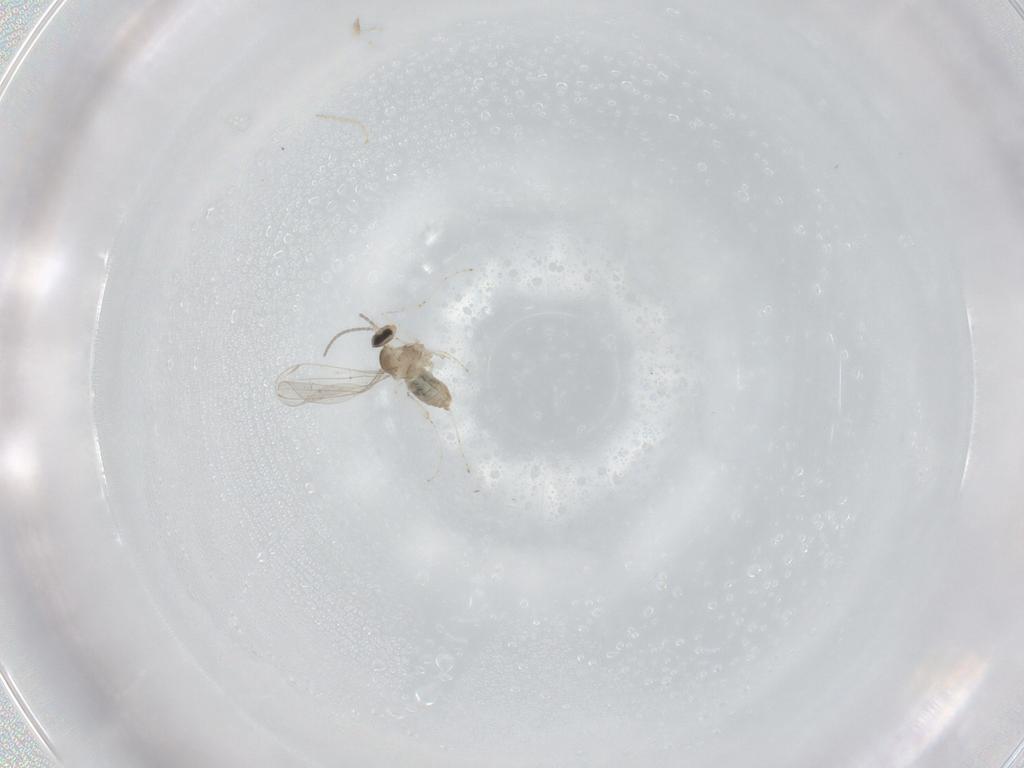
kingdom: Animalia
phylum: Arthropoda
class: Insecta
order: Diptera
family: Cecidomyiidae
